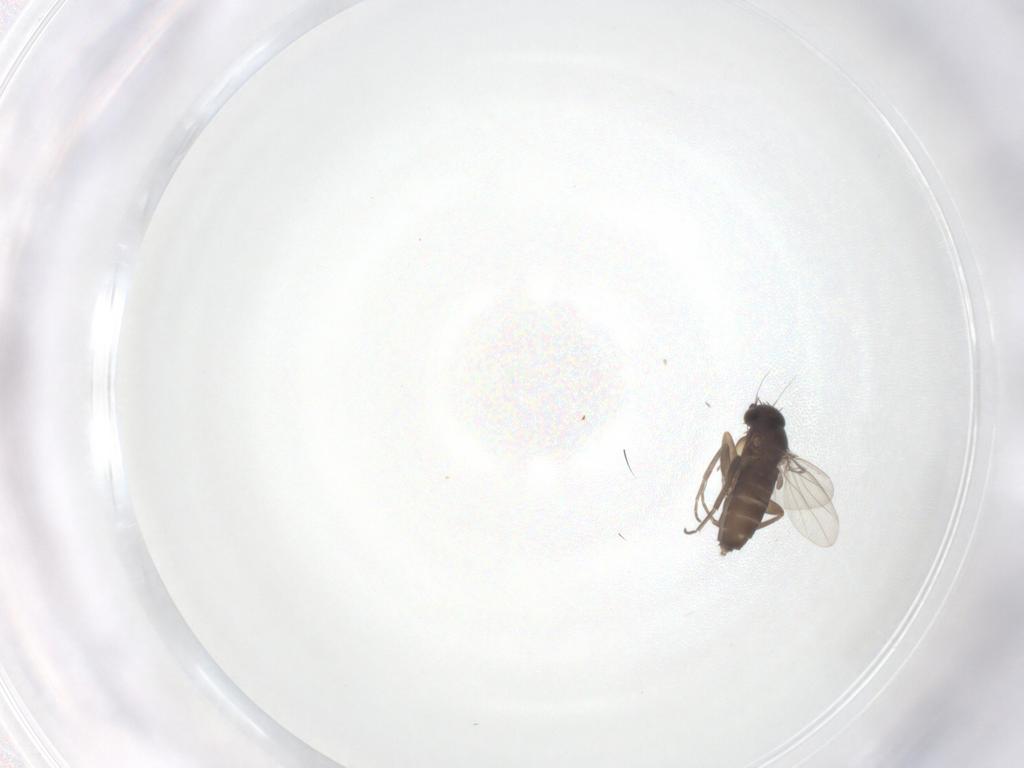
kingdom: Animalia
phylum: Arthropoda
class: Insecta
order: Diptera
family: Phoridae
